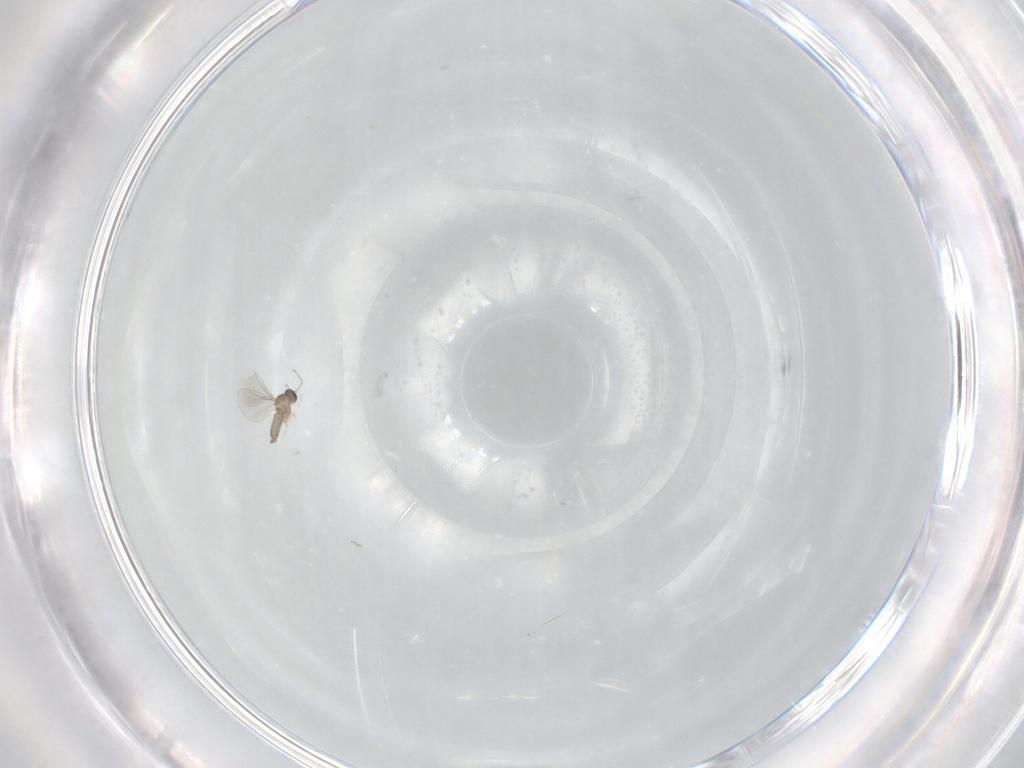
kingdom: Animalia
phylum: Arthropoda
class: Insecta
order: Diptera
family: Cecidomyiidae
